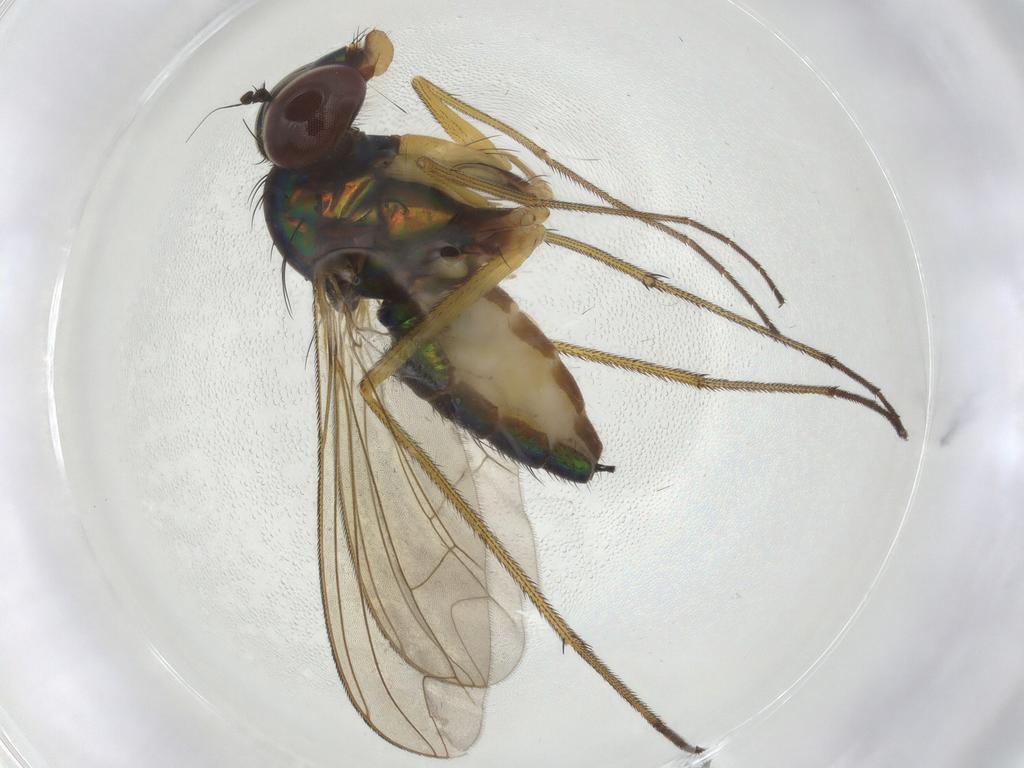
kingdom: Animalia
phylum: Arthropoda
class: Insecta
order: Diptera
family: Dolichopodidae
